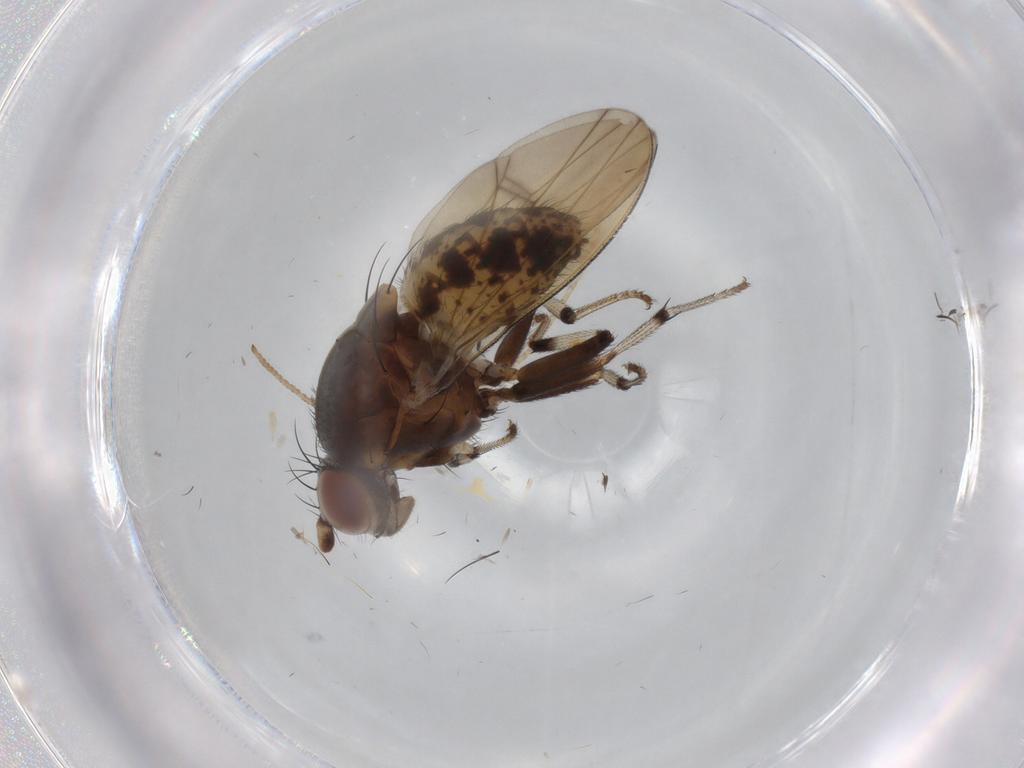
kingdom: Animalia
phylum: Arthropoda
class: Insecta
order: Diptera
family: Lauxaniidae
